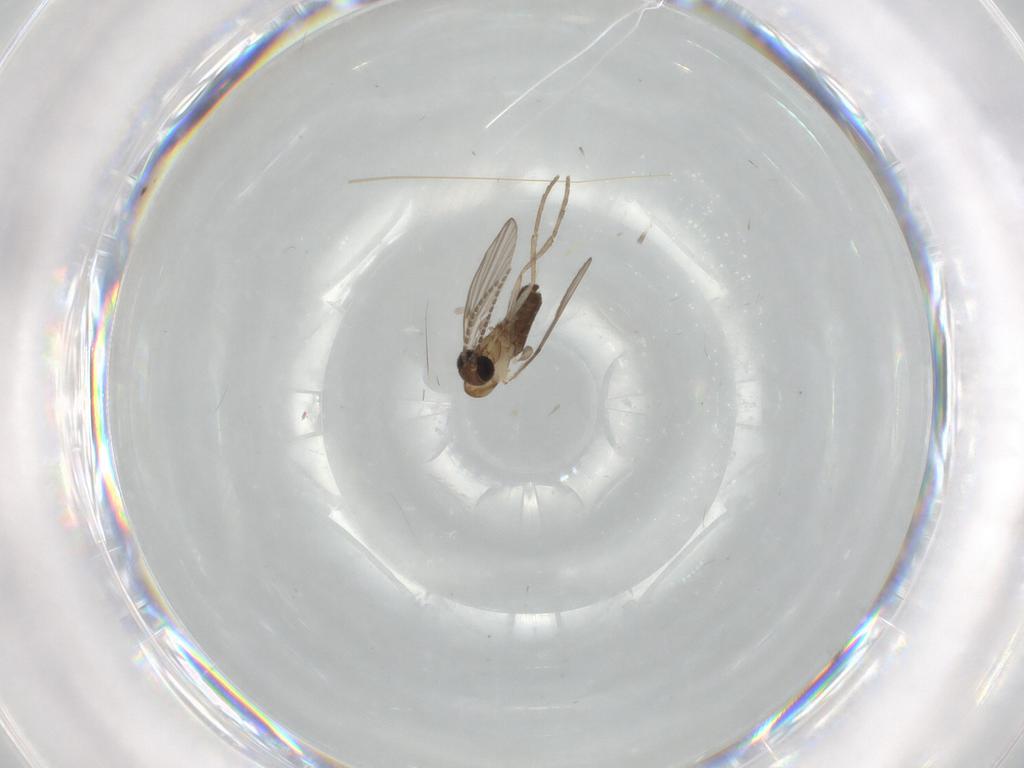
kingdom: Animalia
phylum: Arthropoda
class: Insecta
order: Diptera
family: Psychodidae
